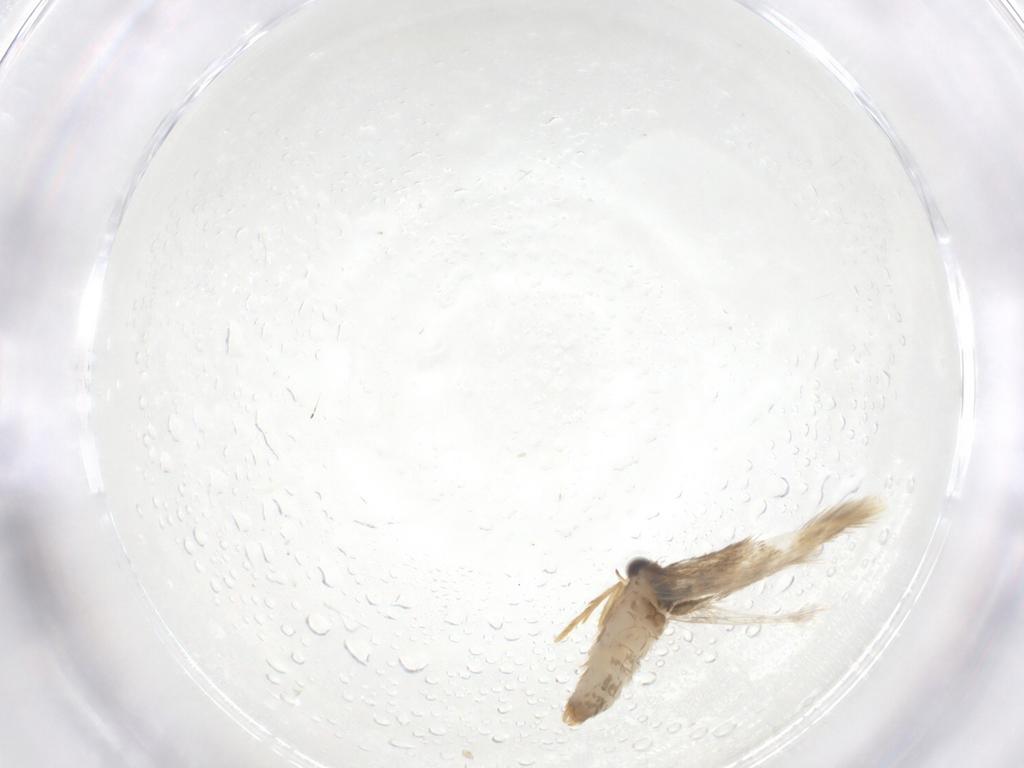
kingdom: Animalia
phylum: Arthropoda
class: Insecta
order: Lepidoptera
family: Nepticulidae
